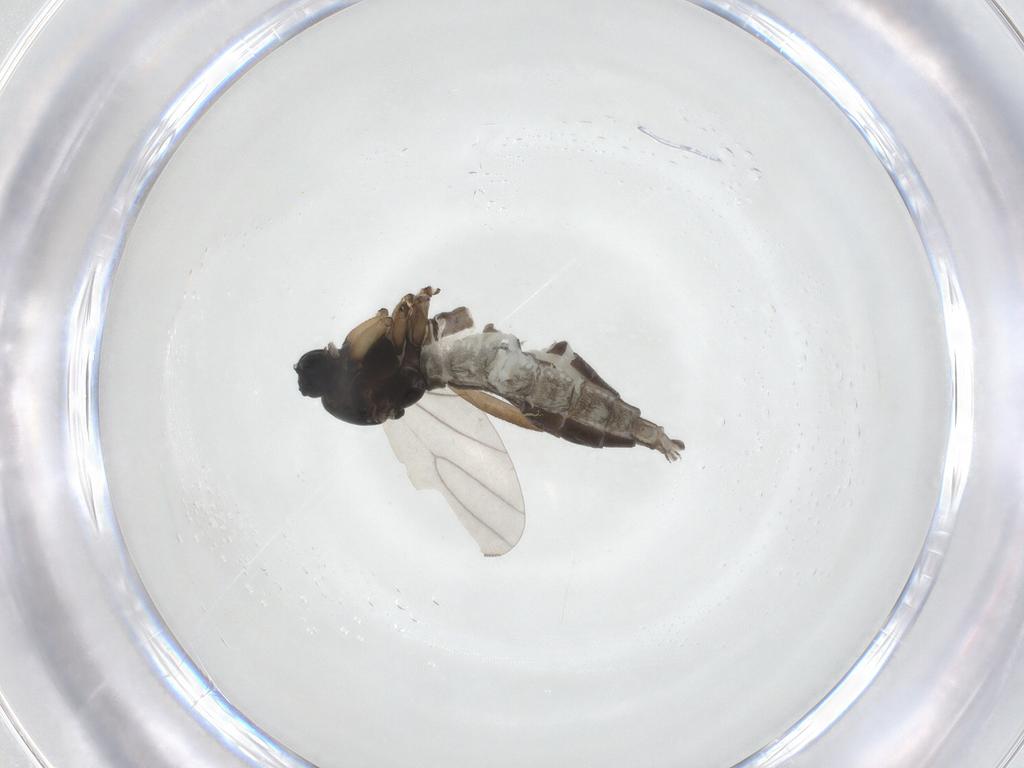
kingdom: Animalia
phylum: Arthropoda
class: Insecta
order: Diptera
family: Sciaridae
